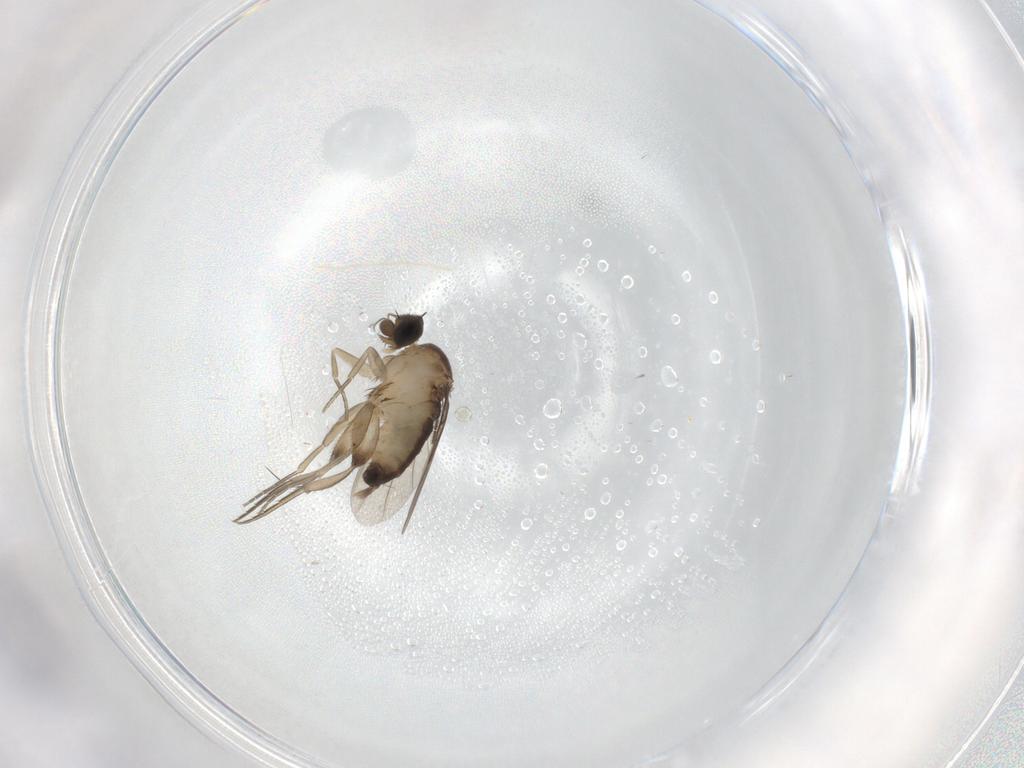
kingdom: Animalia
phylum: Arthropoda
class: Insecta
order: Diptera
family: Phoridae
